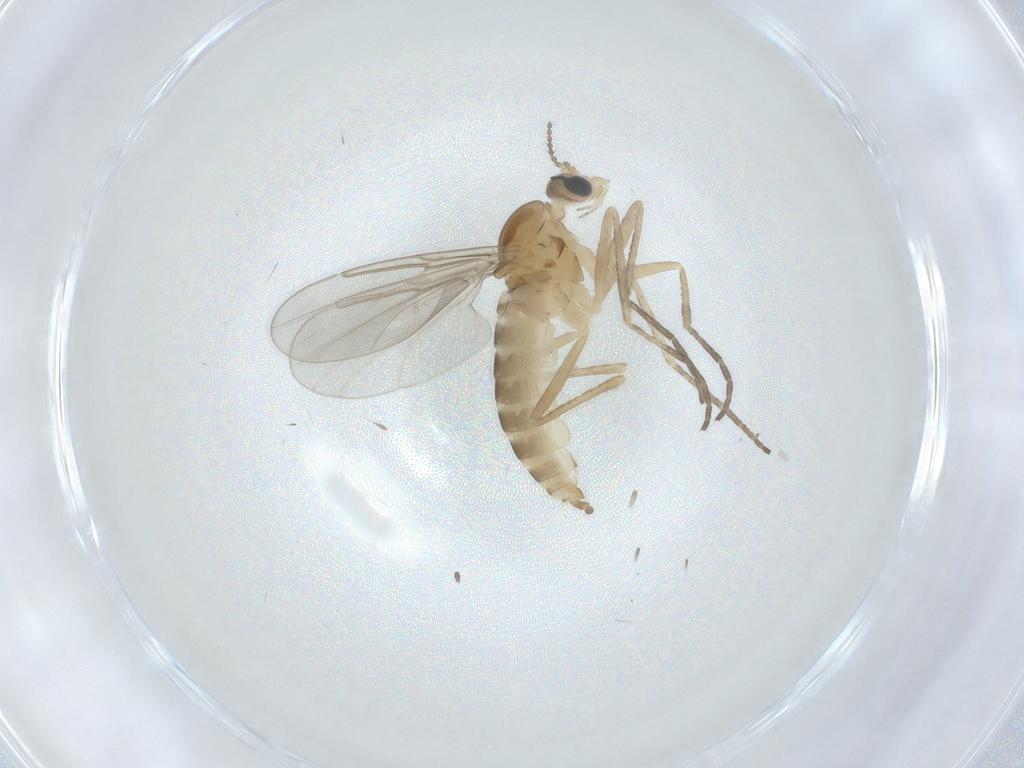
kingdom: Animalia
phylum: Arthropoda
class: Insecta
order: Diptera
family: Cecidomyiidae
